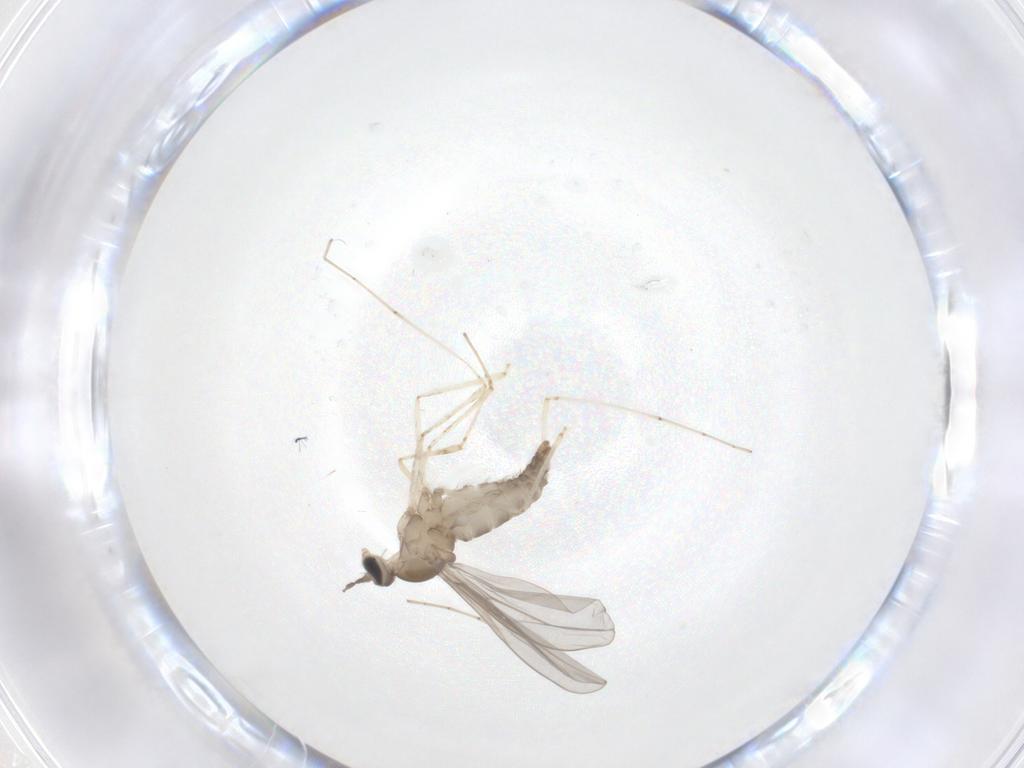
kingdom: Animalia
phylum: Arthropoda
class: Insecta
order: Diptera
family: Cecidomyiidae
